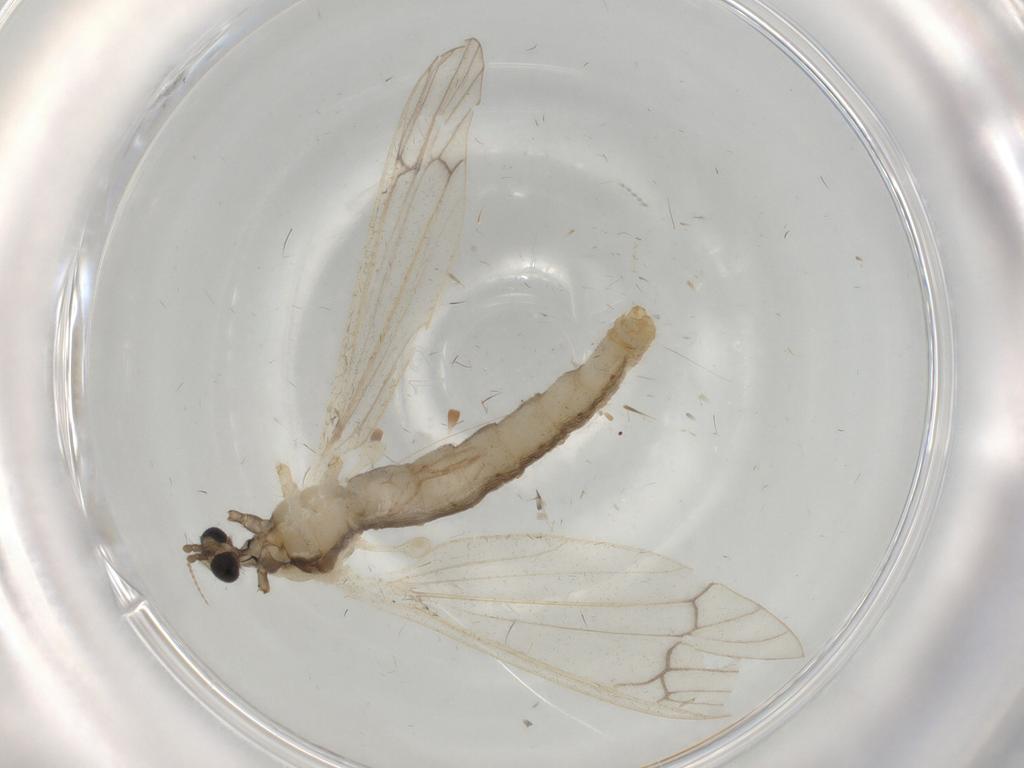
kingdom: Animalia
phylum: Arthropoda
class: Insecta
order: Diptera
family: Phoridae
